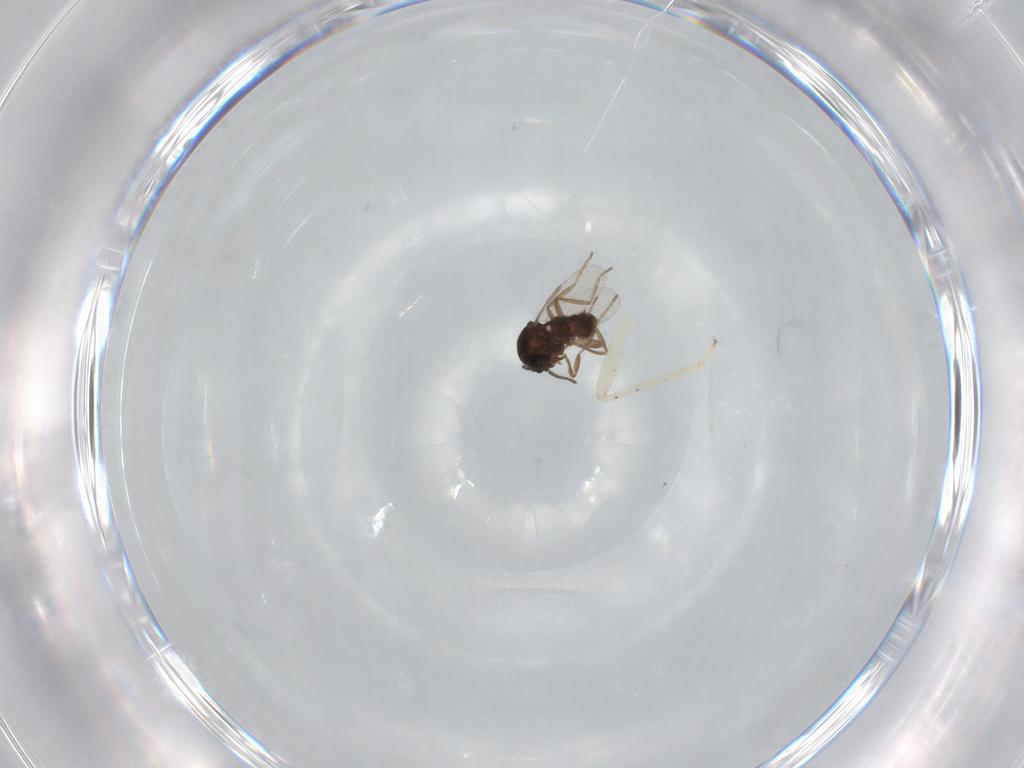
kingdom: Animalia
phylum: Arthropoda
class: Insecta
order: Diptera
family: Ceratopogonidae
